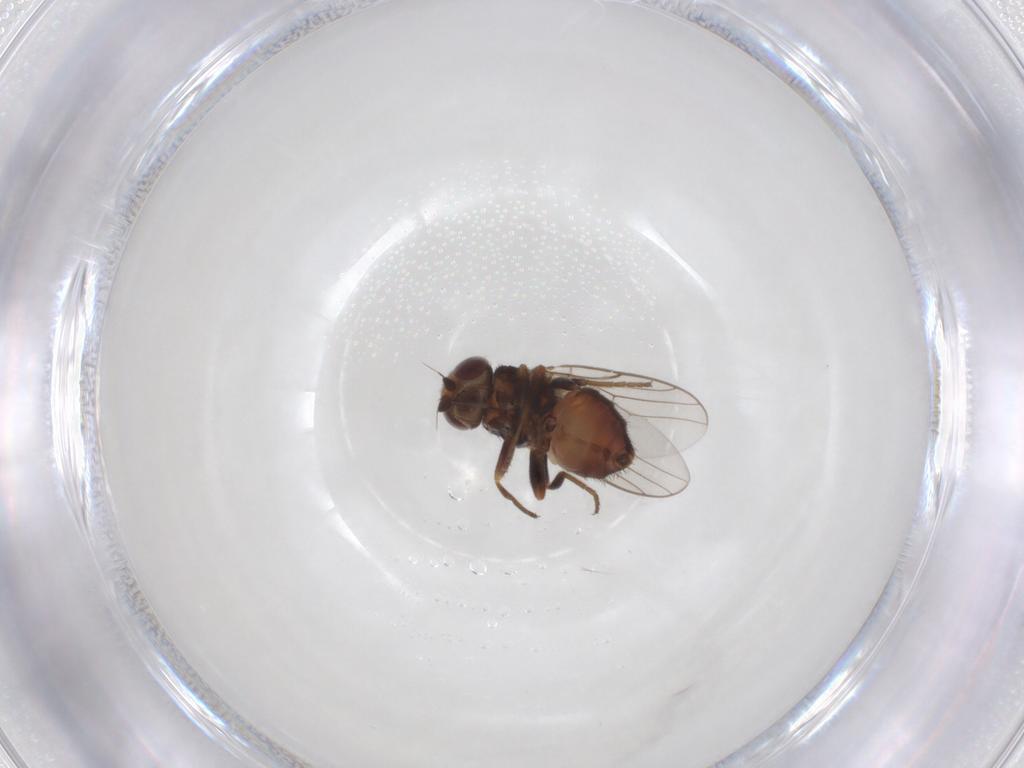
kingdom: Animalia
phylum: Arthropoda
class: Insecta
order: Diptera
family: Chloropidae
